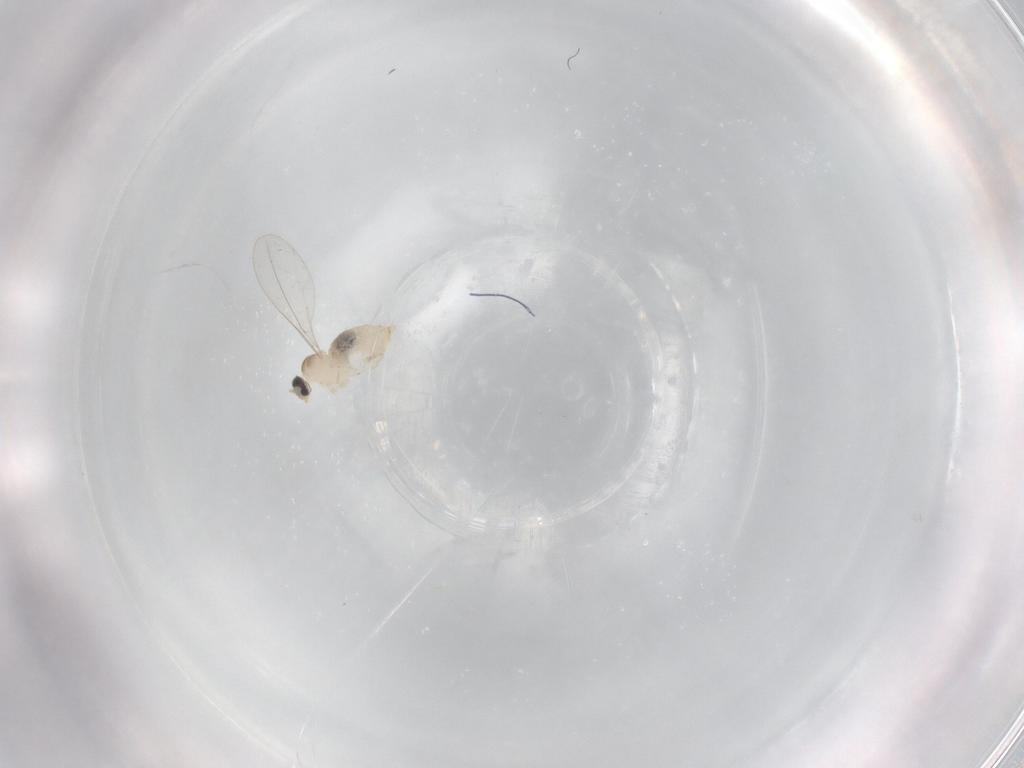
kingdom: Animalia
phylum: Arthropoda
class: Insecta
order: Diptera
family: Cecidomyiidae
